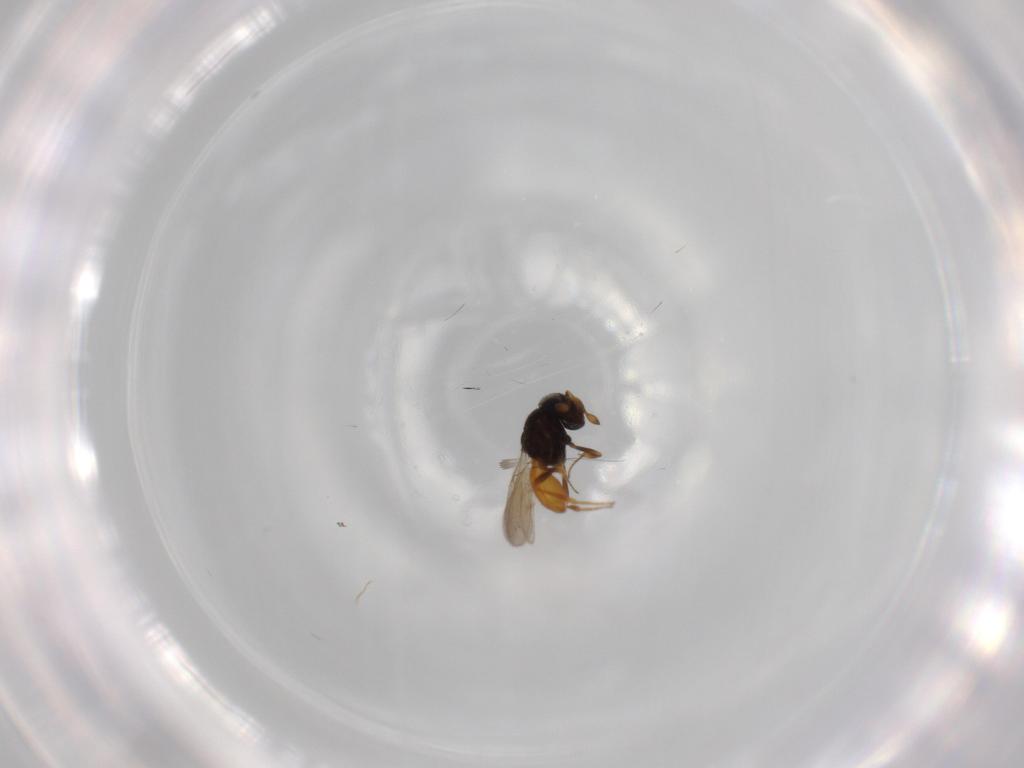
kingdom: Animalia
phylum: Arthropoda
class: Insecta
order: Hymenoptera
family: Scelionidae
